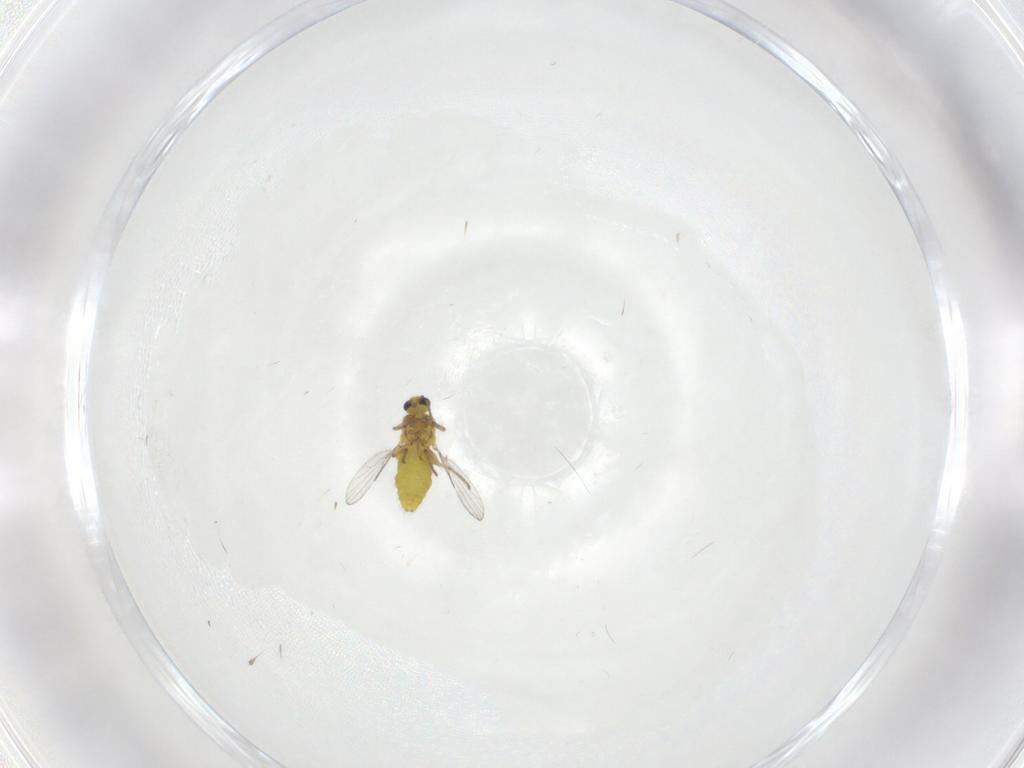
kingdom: Animalia
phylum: Arthropoda
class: Insecta
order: Diptera
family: Ceratopogonidae
